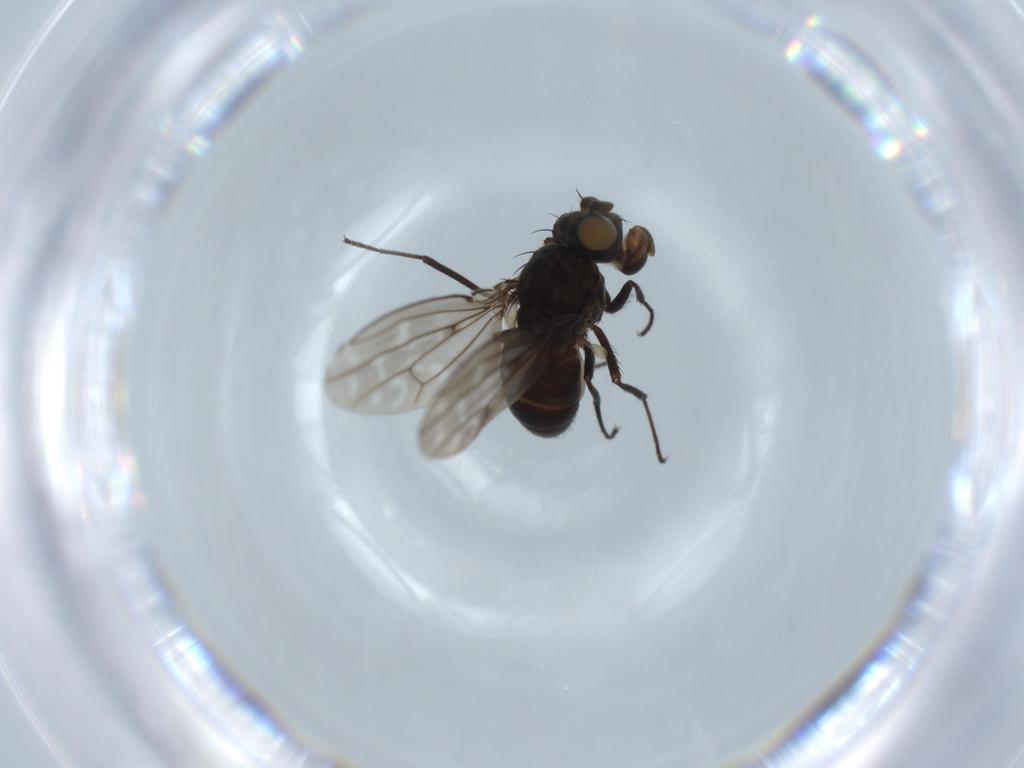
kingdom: Animalia
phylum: Arthropoda
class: Insecta
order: Diptera
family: Ephydridae
